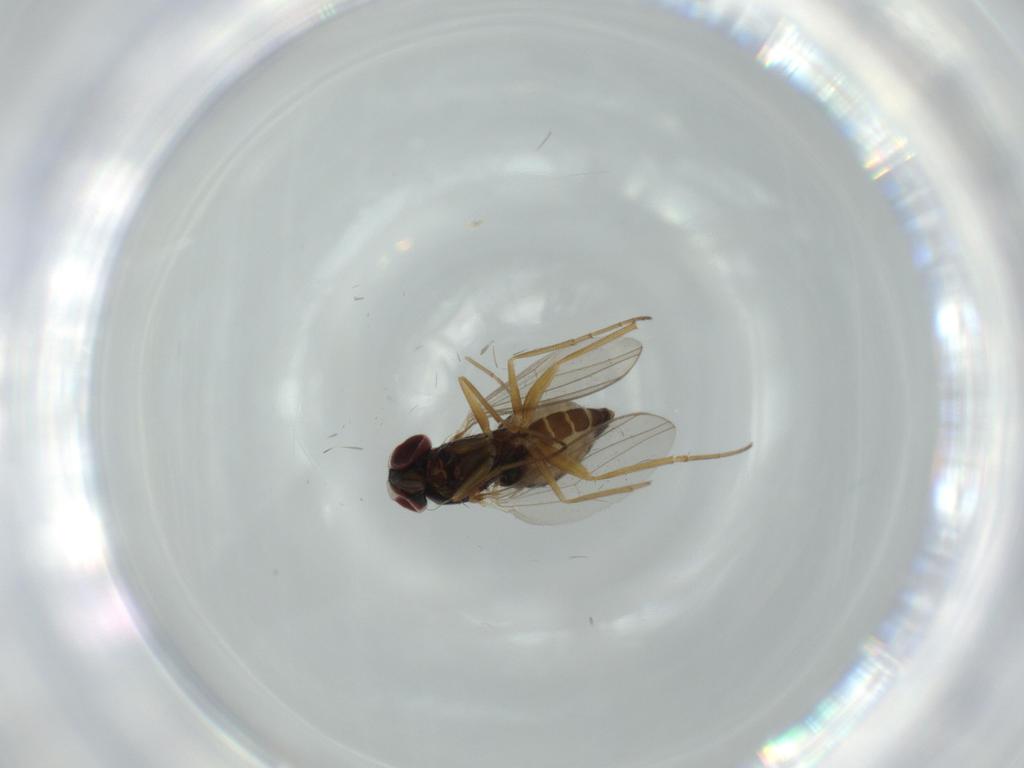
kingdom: Animalia
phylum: Arthropoda
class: Insecta
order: Diptera
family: Dolichopodidae
